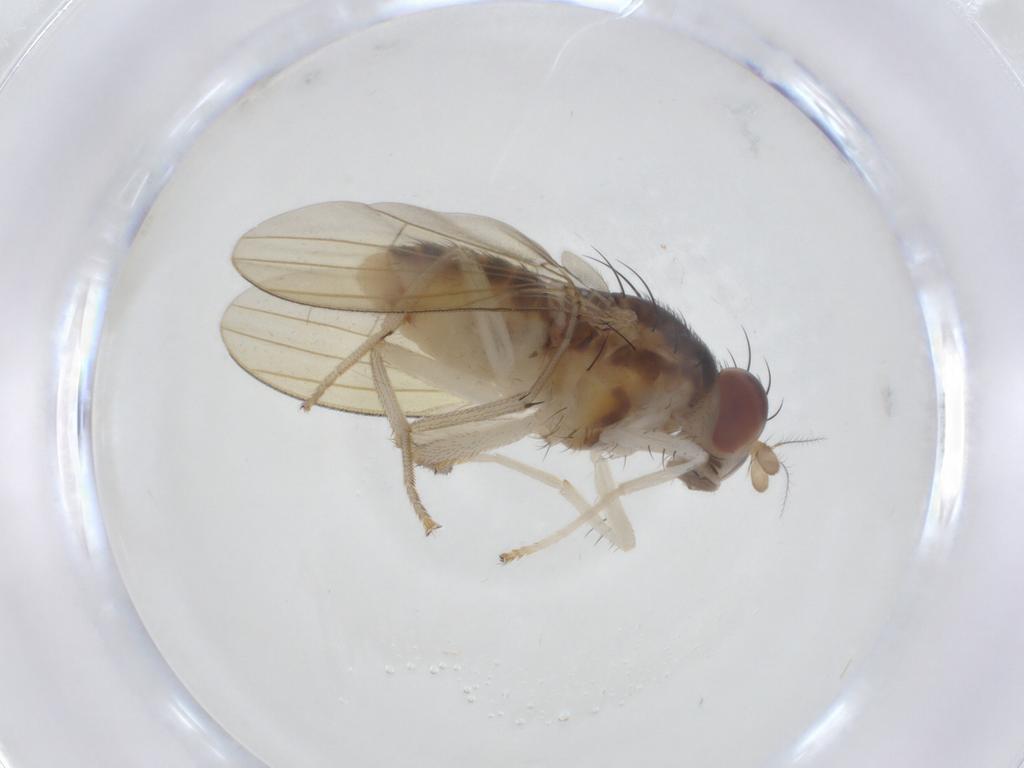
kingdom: Animalia
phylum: Arthropoda
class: Insecta
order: Diptera
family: Lauxaniidae
